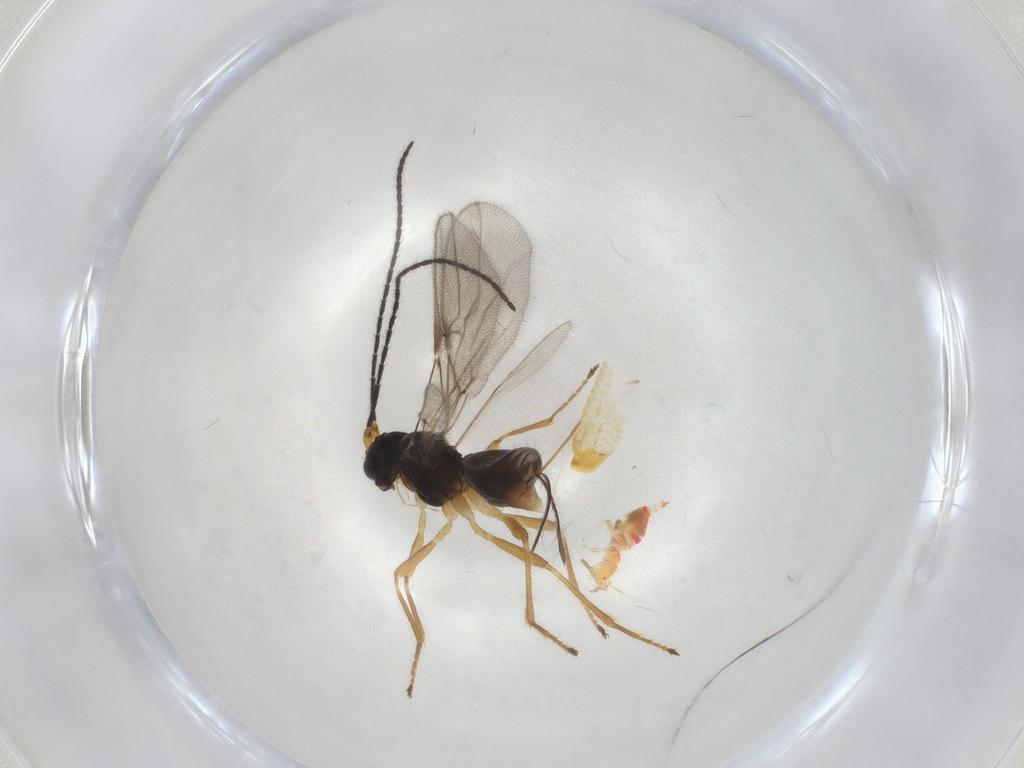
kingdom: Animalia
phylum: Arthropoda
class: Insecta
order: Hymenoptera
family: Braconidae
